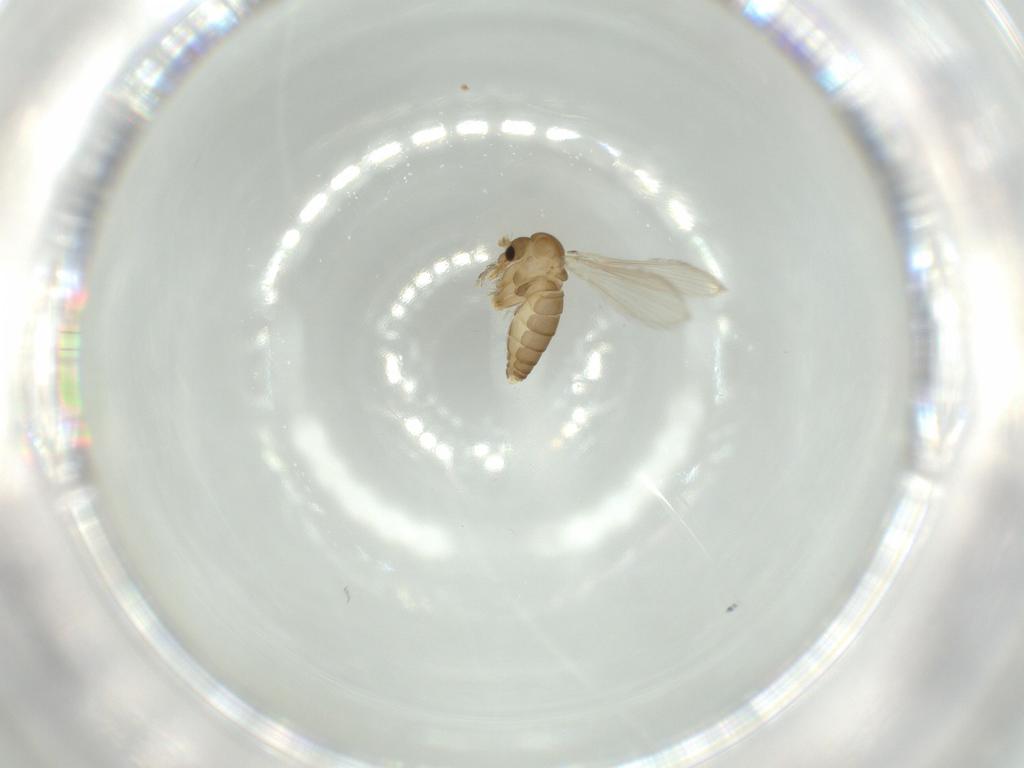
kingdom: Animalia
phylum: Arthropoda
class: Insecta
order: Diptera
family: Psychodidae
